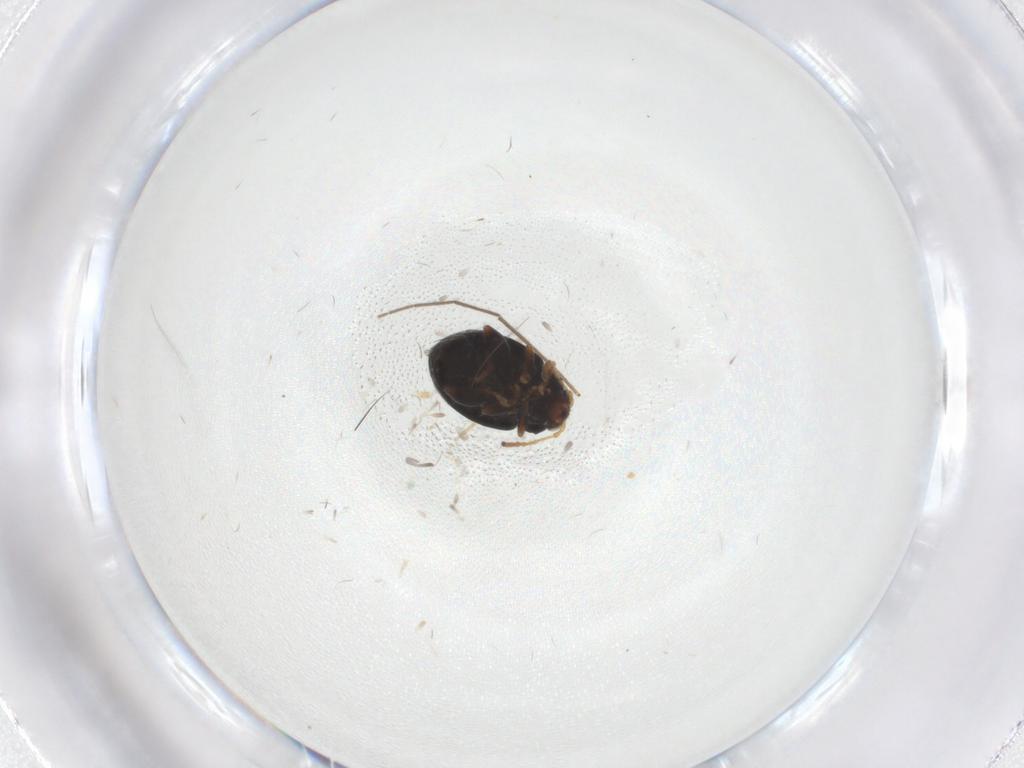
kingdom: Animalia
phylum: Arthropoda
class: Insecta
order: Coleoptera
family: Chrysomelidae
